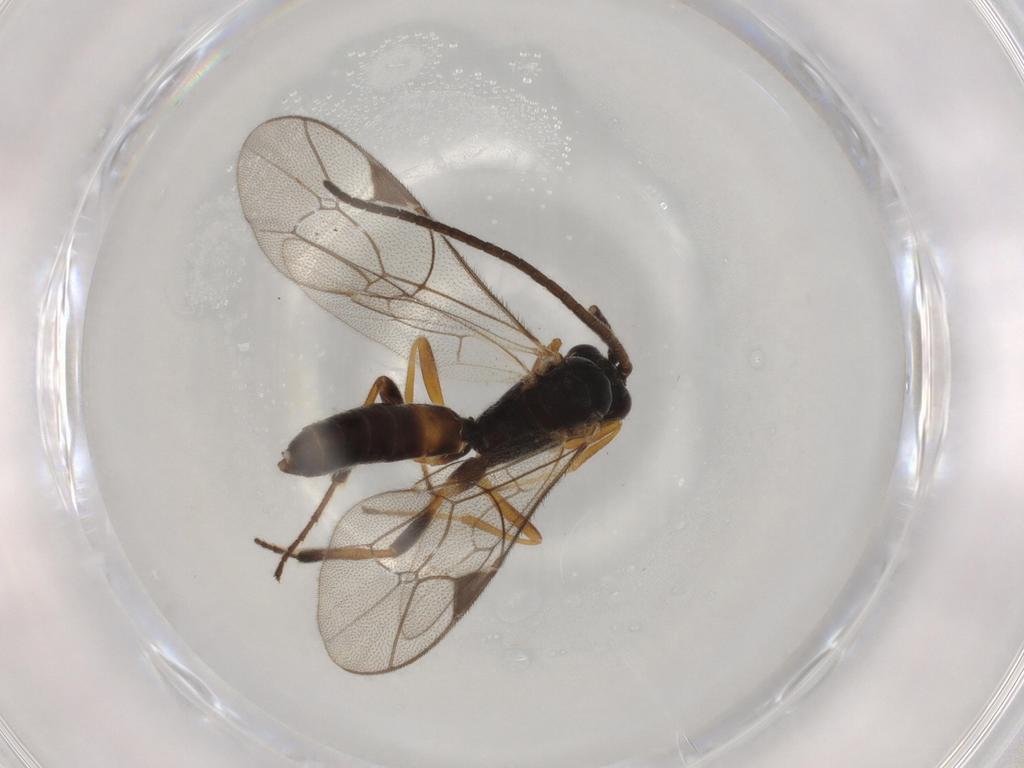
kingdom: Animalia
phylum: Arthropoda
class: Insecta
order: Hymenoptera
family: Ichneumonidae
